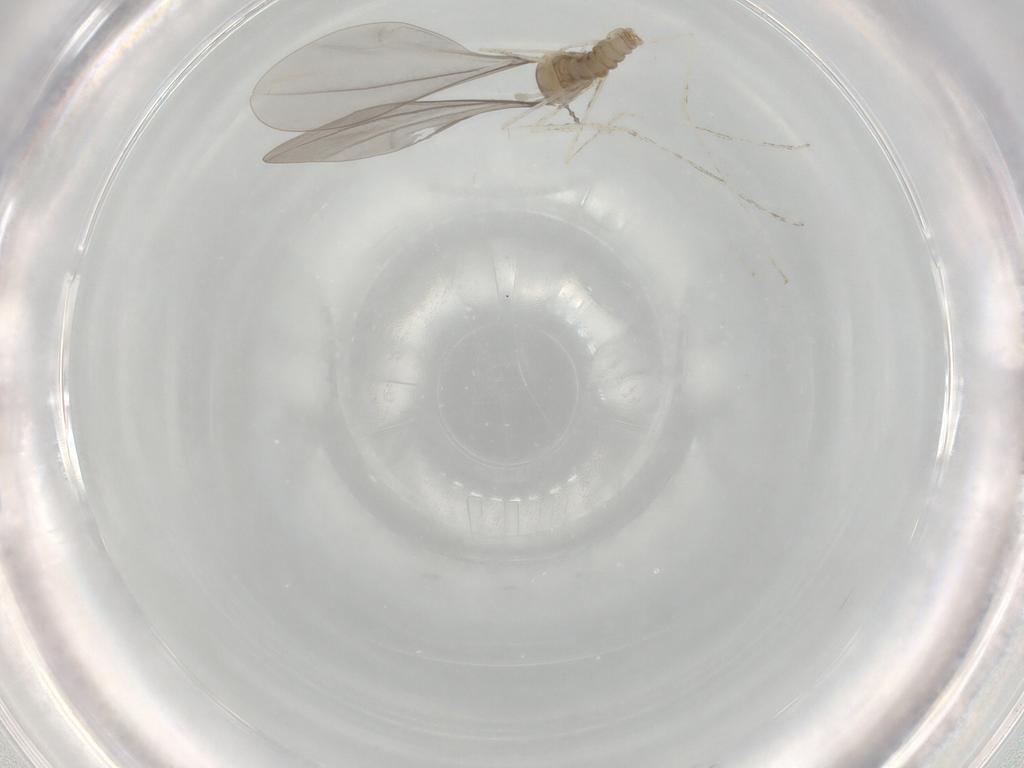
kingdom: Animalia
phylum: Arthropoda
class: Insecta
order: Diptera
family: Cecidomyiidae
